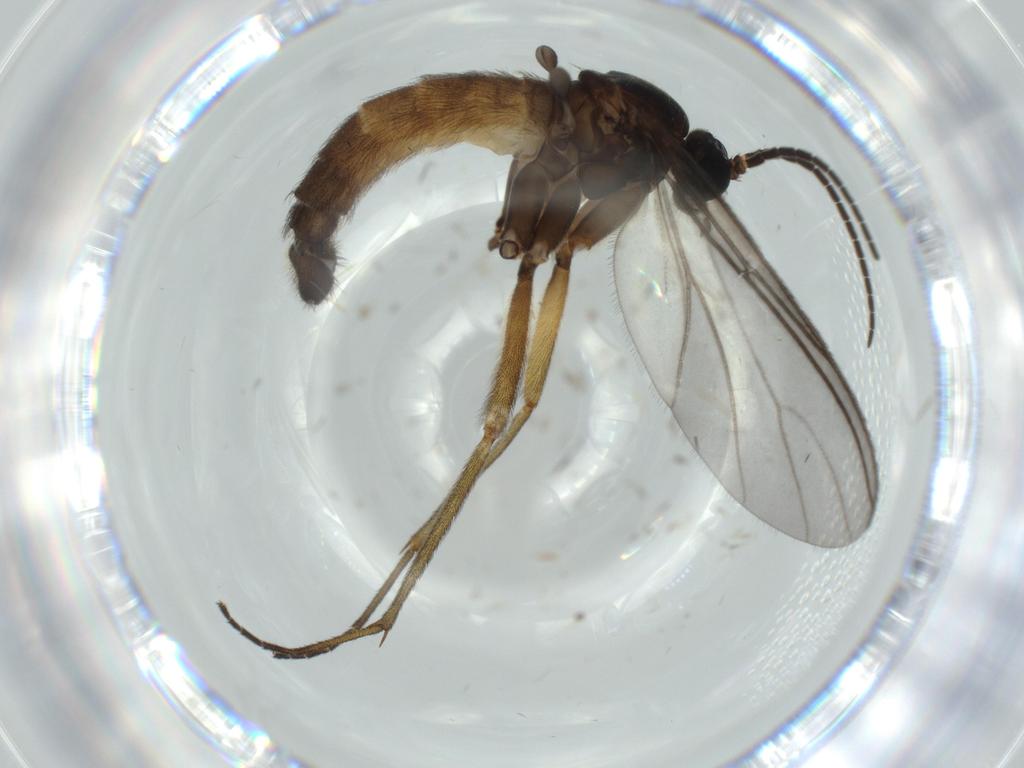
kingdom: Animalia
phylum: Arthropoda
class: Insecta
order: Diptera
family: Sciaridae
